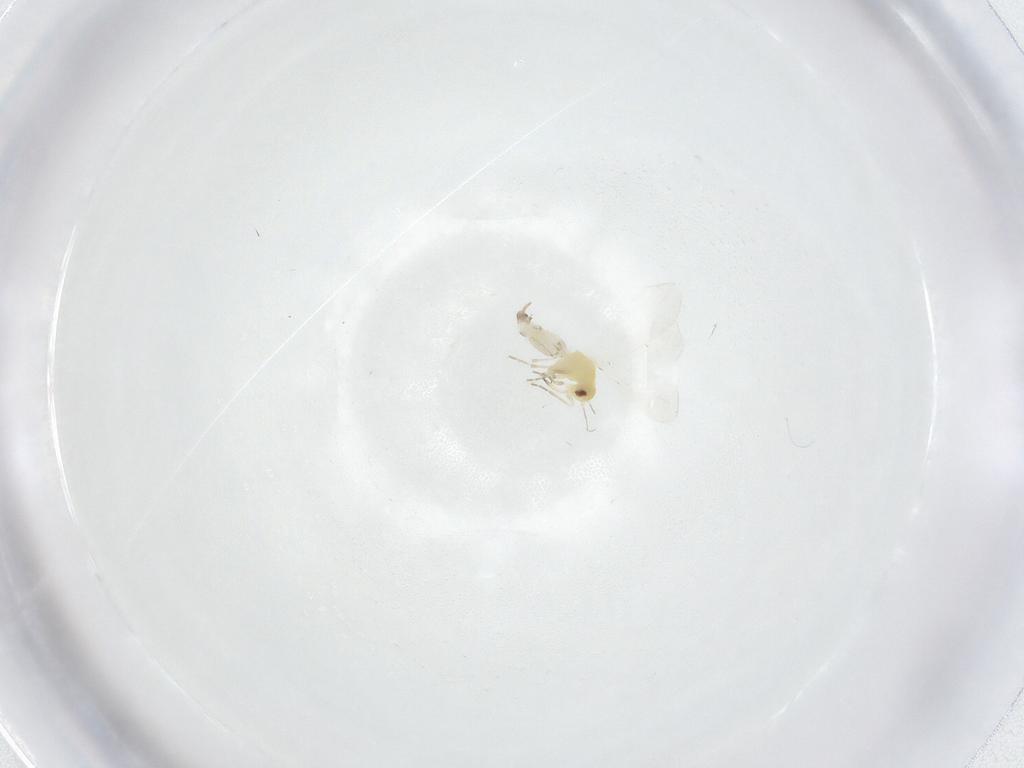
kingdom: Animalia
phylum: Arthropoda
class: Insecta
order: Hemiptera
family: Aleyrodidae
